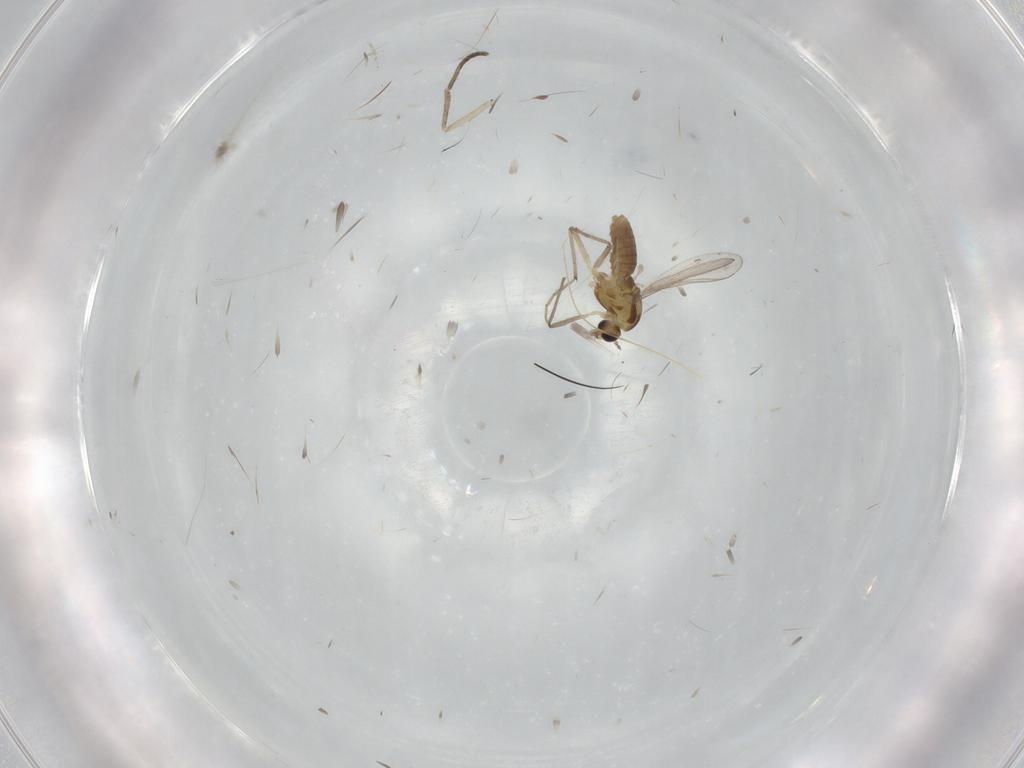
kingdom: Animalia
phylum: Arthropoda
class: Insecta
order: Diptera
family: Chironomidae
